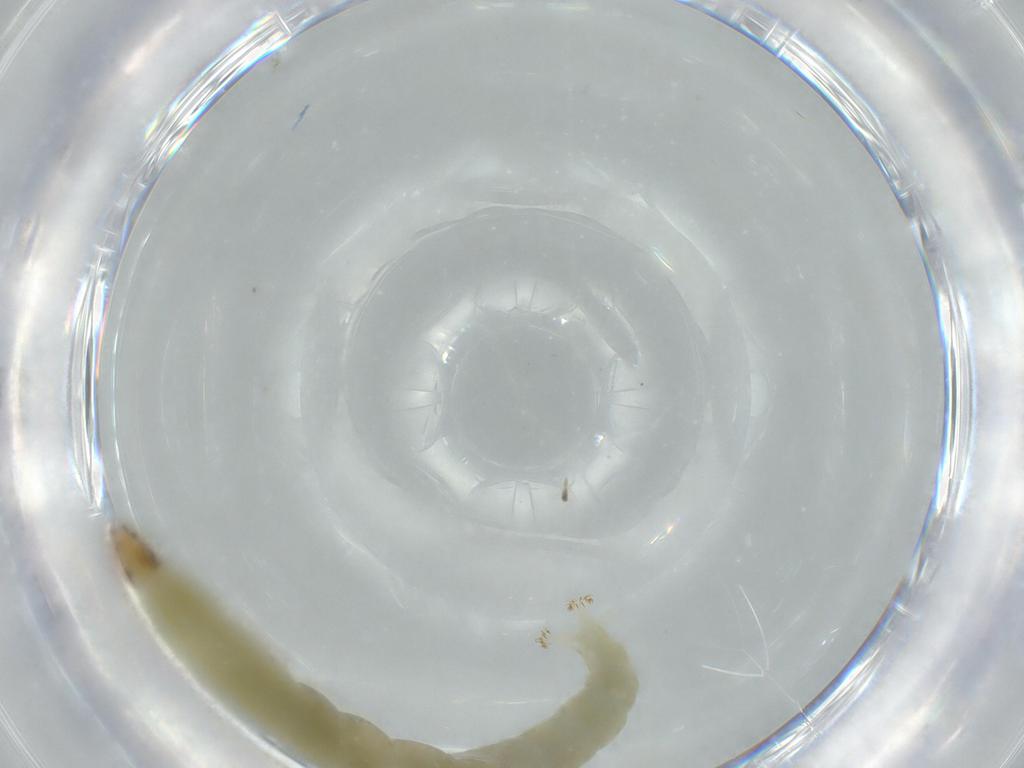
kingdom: Animalia
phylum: Arthropoda
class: Insecta
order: Diptera
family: Chironomidae
